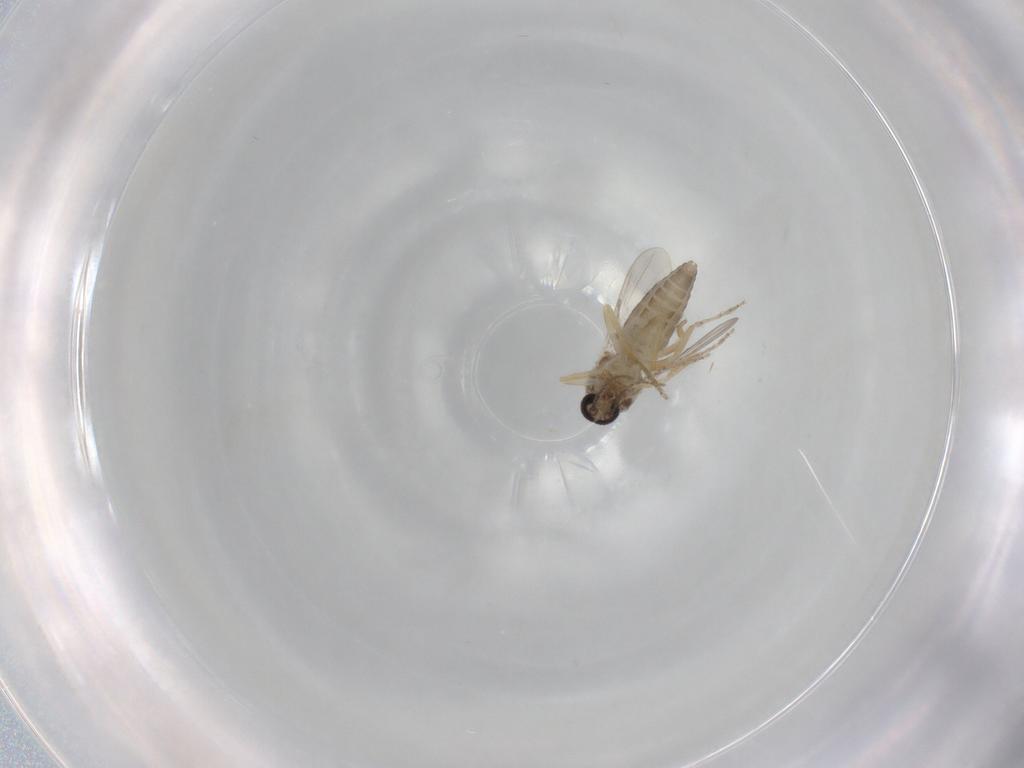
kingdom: Animalia
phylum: Arthropoda
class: Insecta
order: Diptera
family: Ceratopogonidae
